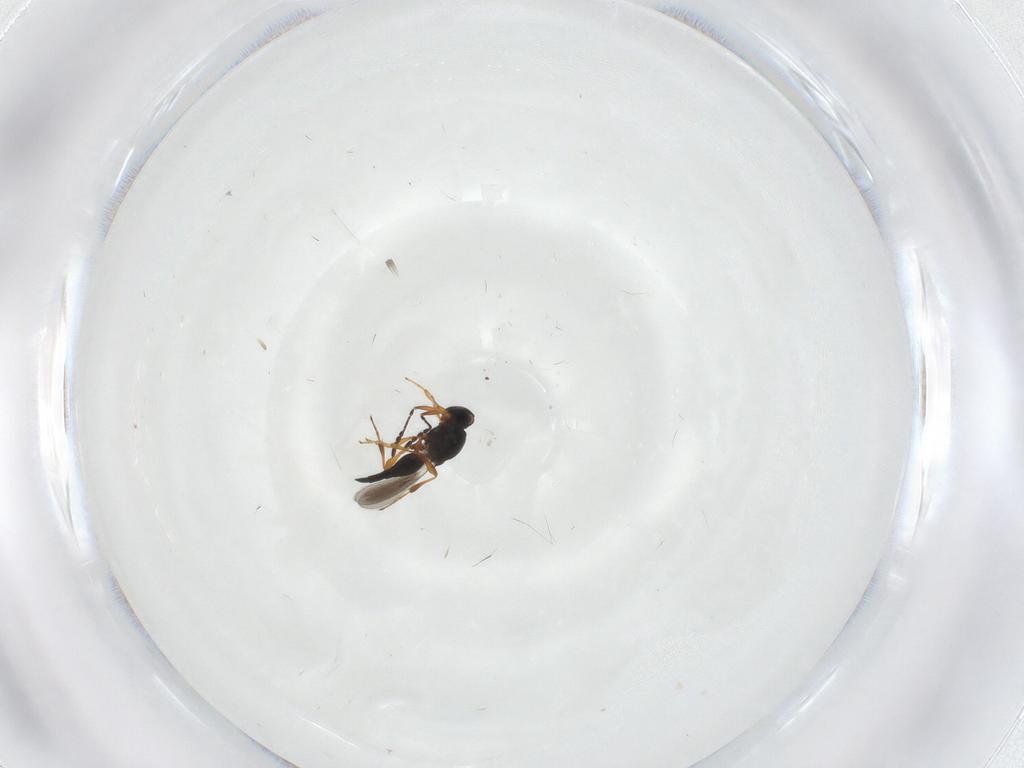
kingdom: Animalia
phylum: Arthropoda
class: Insecta
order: Hymenoptera
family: Platygastridae
